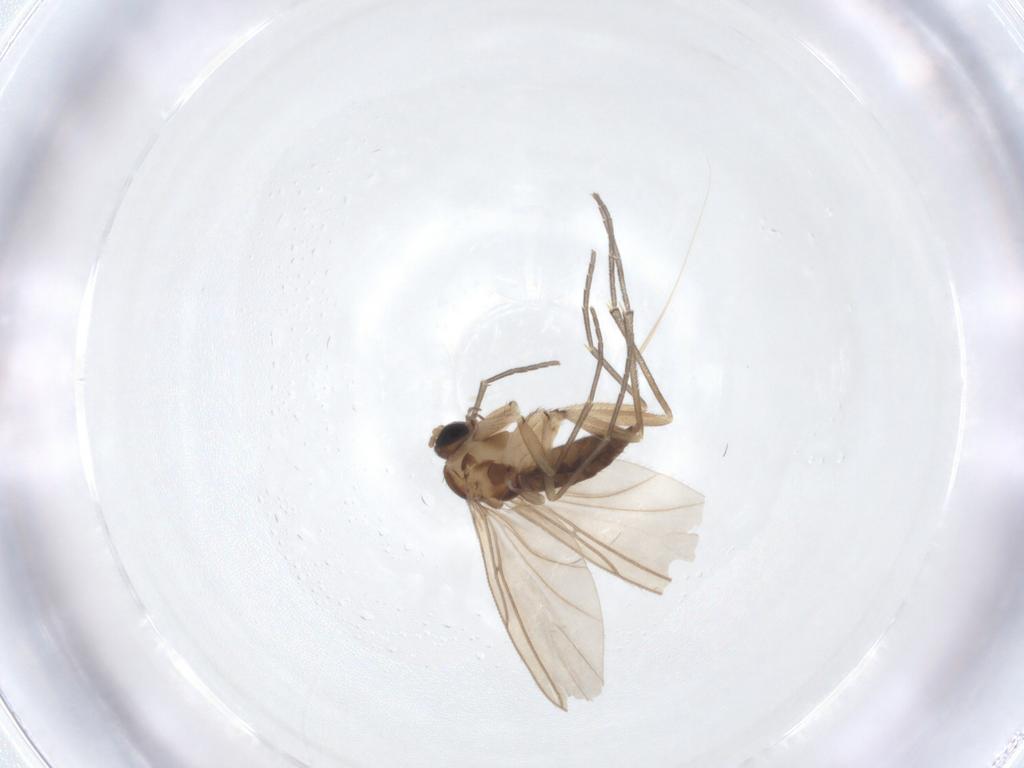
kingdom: Animalia
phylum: Arthropoda
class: Insecta
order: Diptera
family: Sciaridae
